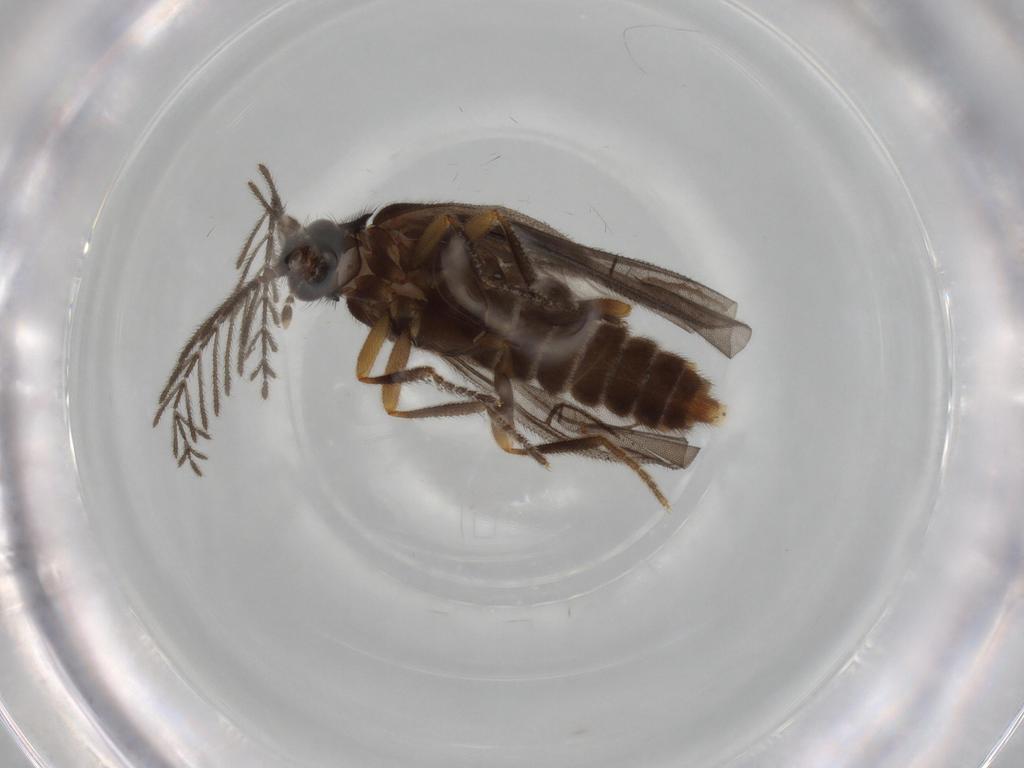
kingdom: Animalia
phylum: Arthropoda
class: Insecta
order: Coleoptera
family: Chrysomelidae
